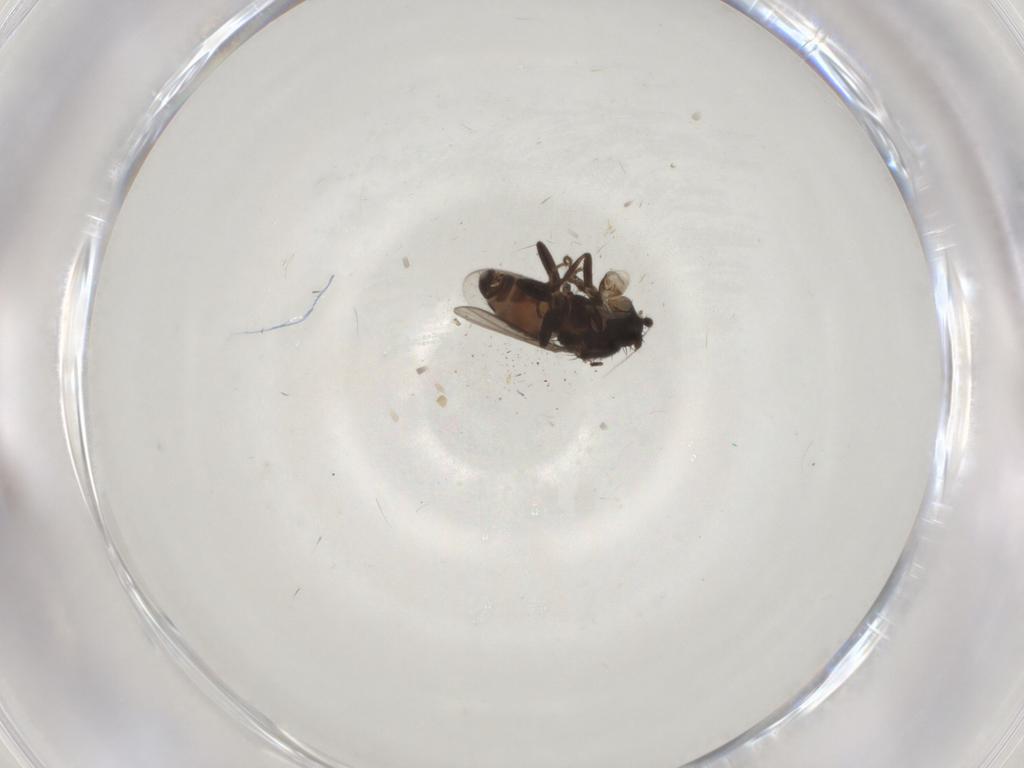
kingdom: Animalia
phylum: Arthropoda
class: Insecta
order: Diptera
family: Sphaeroceridae
